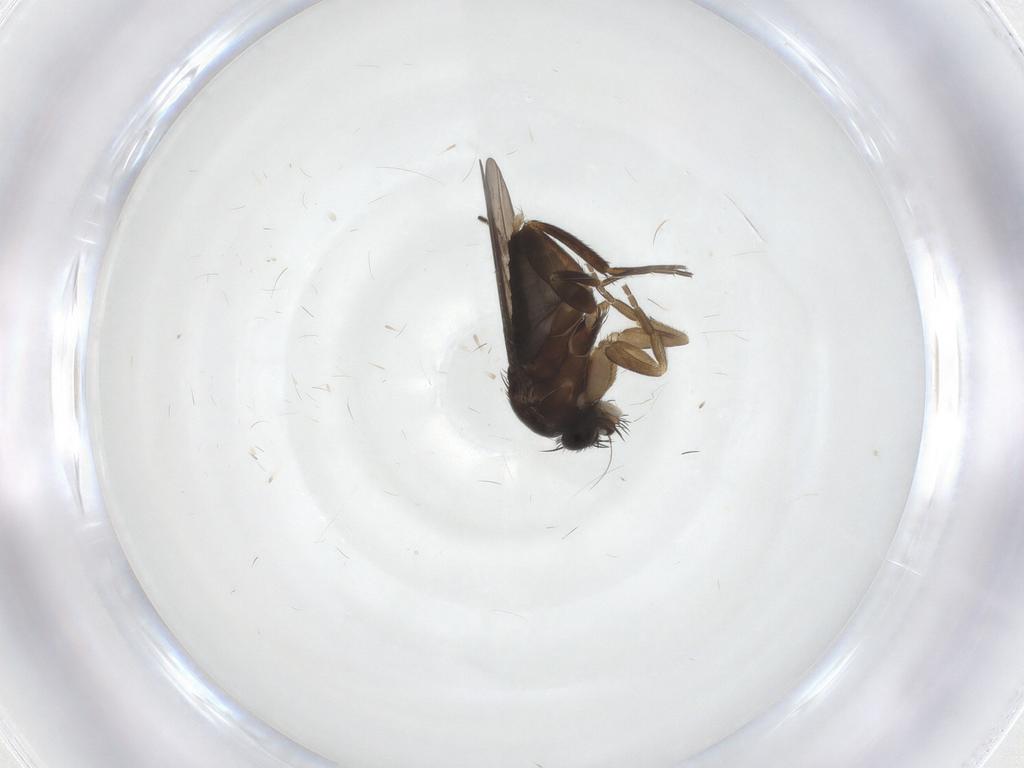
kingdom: Animalia
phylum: Arthropoda
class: Insecta
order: Diptera
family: Phoridae
